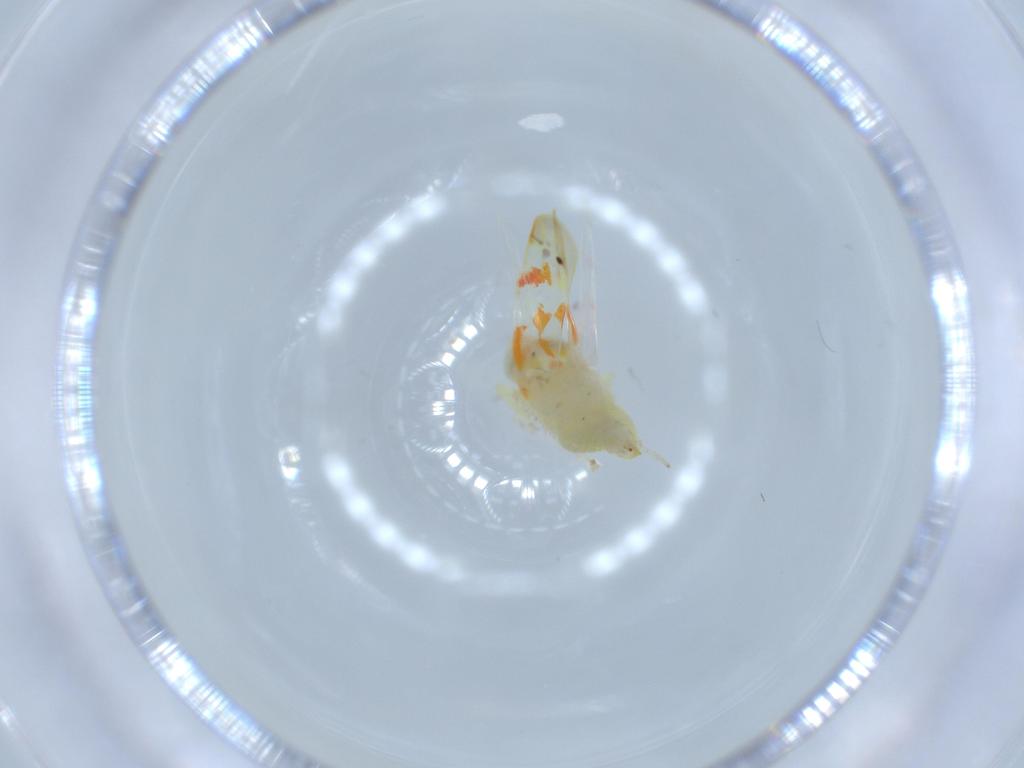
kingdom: Animalia
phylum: Arthropoda
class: Insecta
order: Hemiptera
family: Cicadellidae
